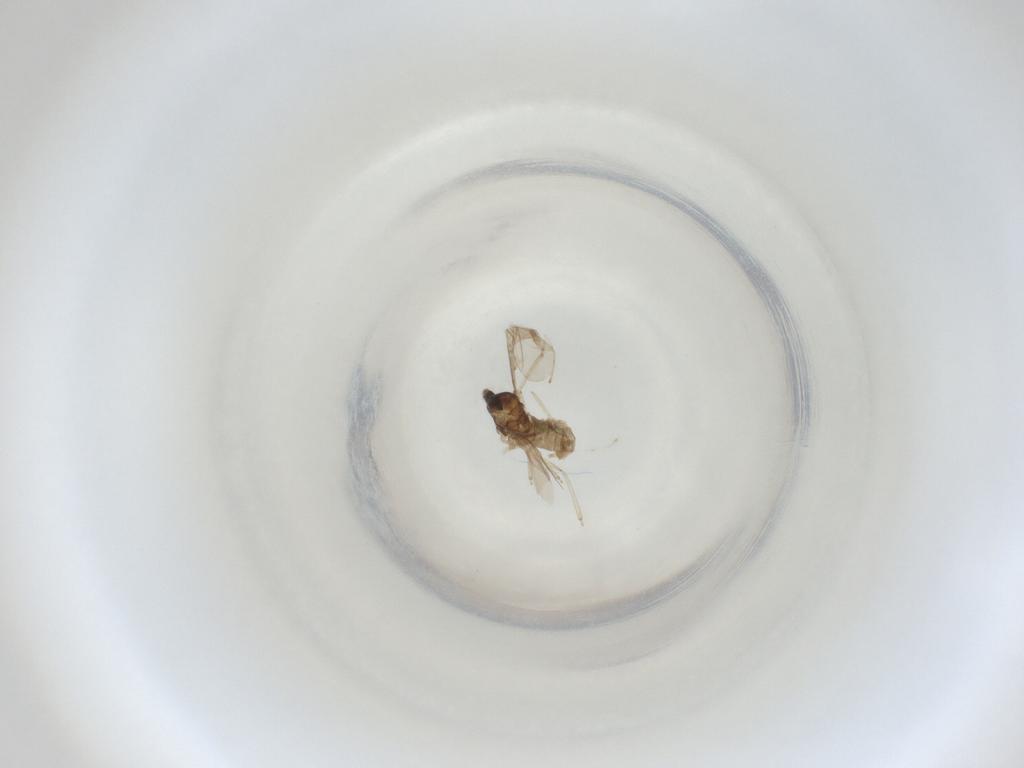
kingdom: Animalia
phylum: Arthropoda
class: Insecta
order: Diptera
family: Cecidomyiidae
